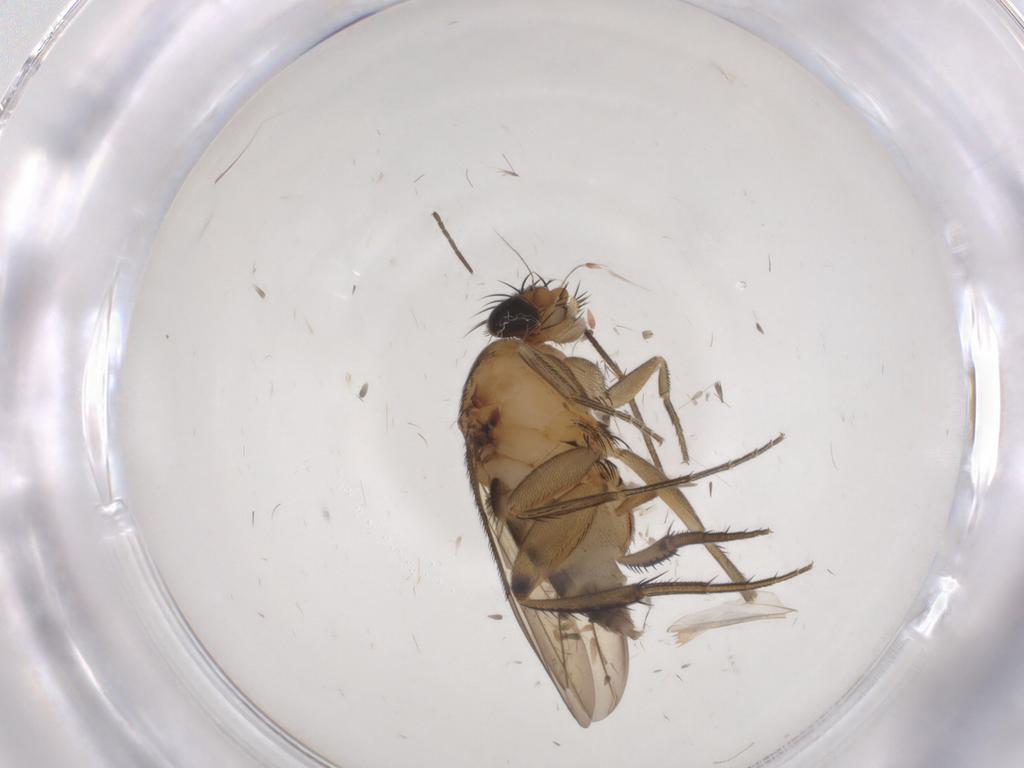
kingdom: Animalia
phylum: Arthropoda
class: Insecta
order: Diptera
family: Chironomidae
